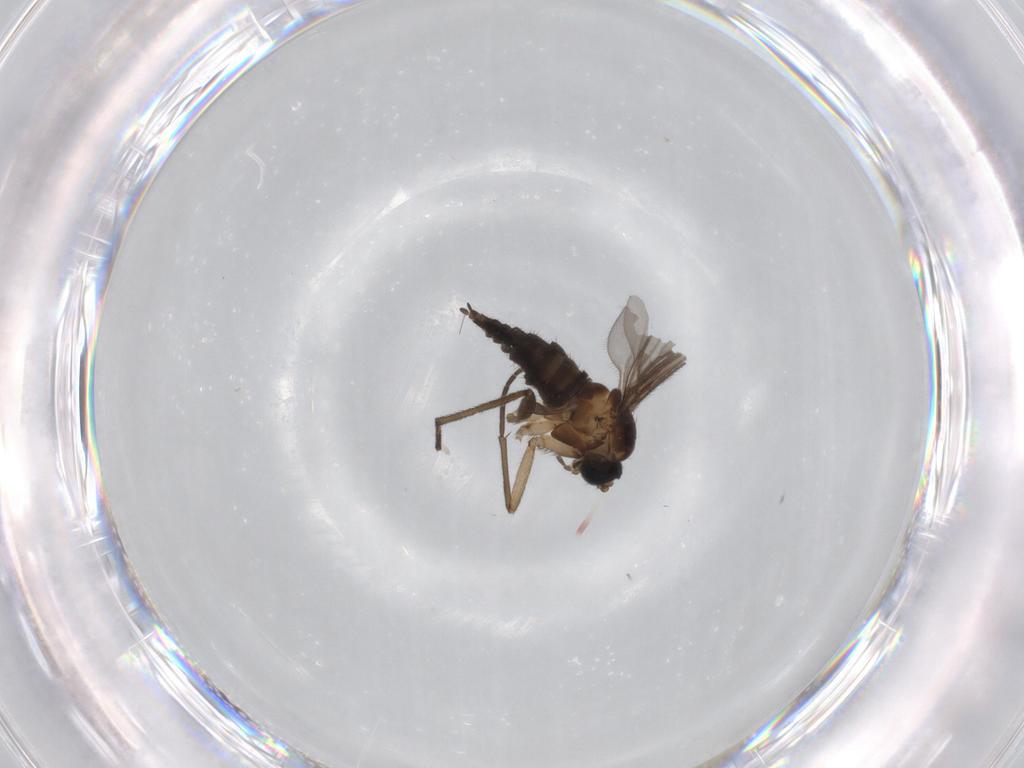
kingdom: Animalia
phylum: Arthropoda
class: Insecta
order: Diptera
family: Sciaridae
